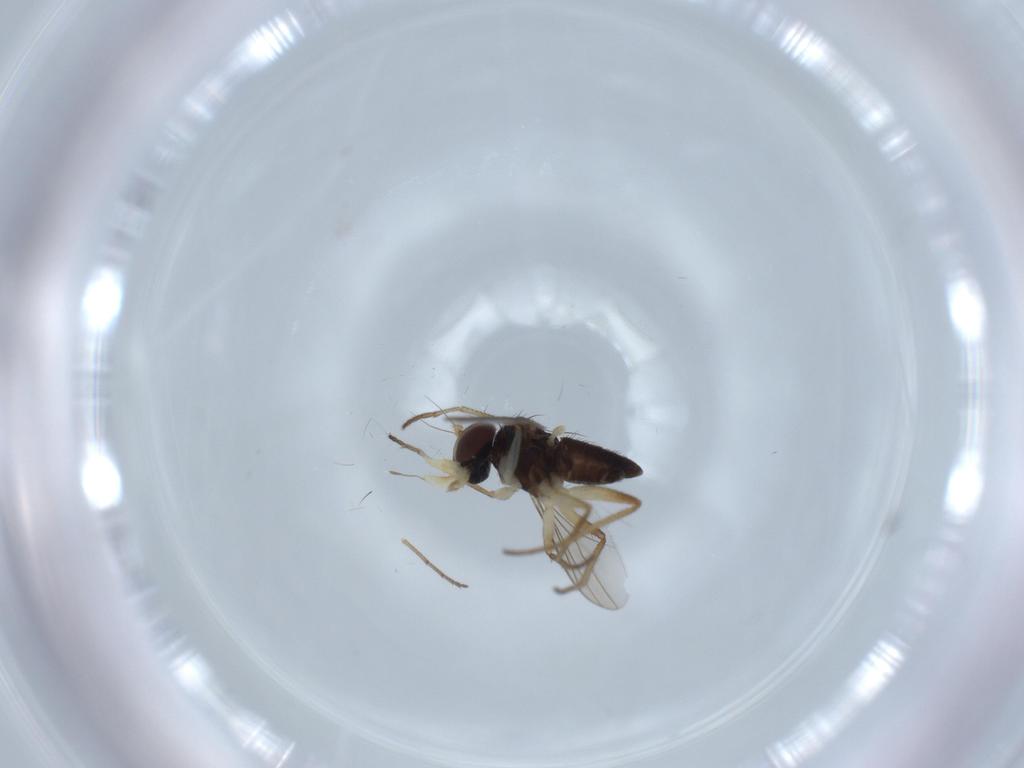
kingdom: Animalia
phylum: Arthropoda
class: Insecta
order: Diptera
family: Dolichopodidae
